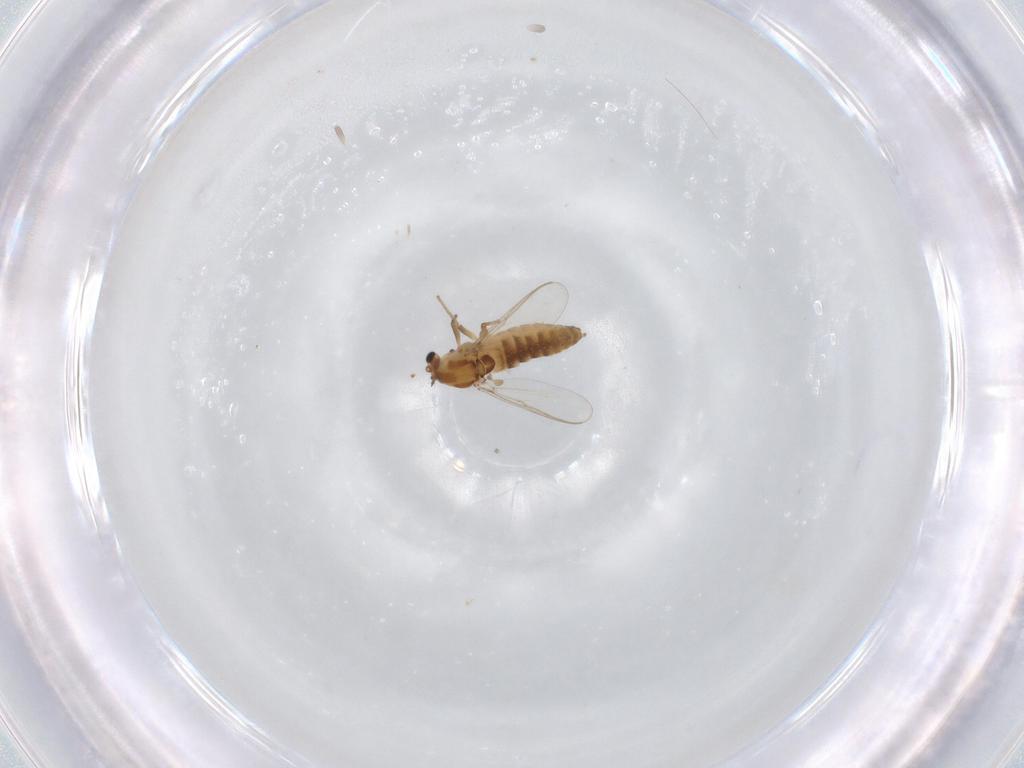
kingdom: Animalia
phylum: Arthropoda
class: Insecta
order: Diptera
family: Chironomidae
